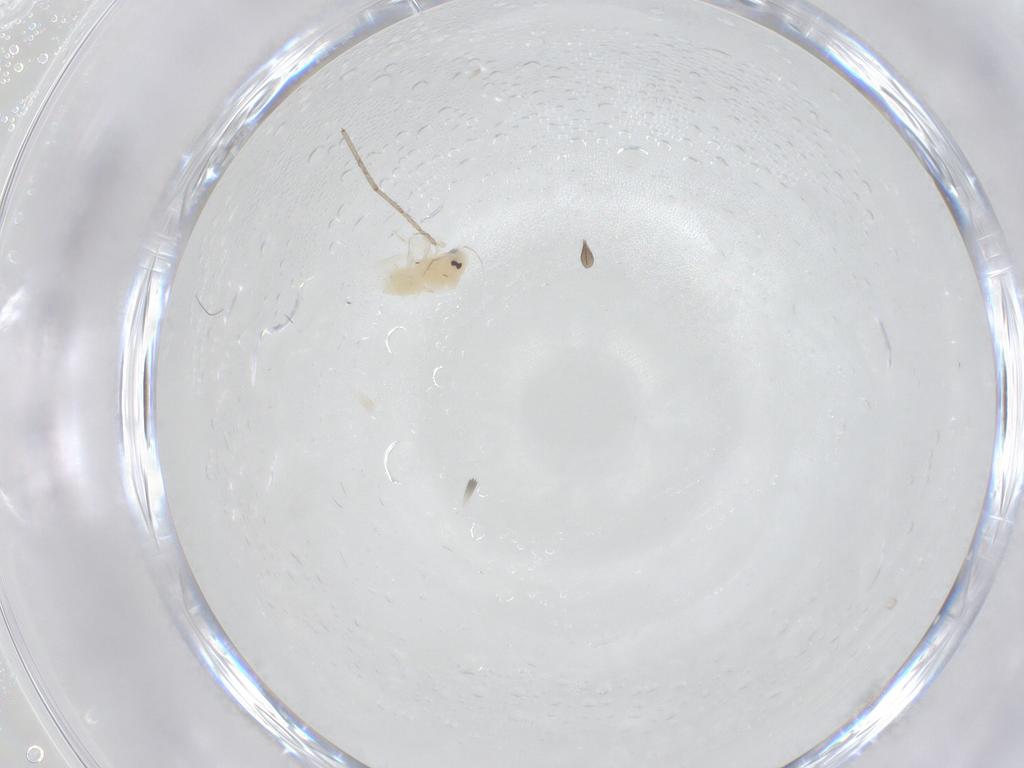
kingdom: Animalia
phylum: Arthropoda
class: Insecta
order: Diptera
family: Cecidomyiidae
